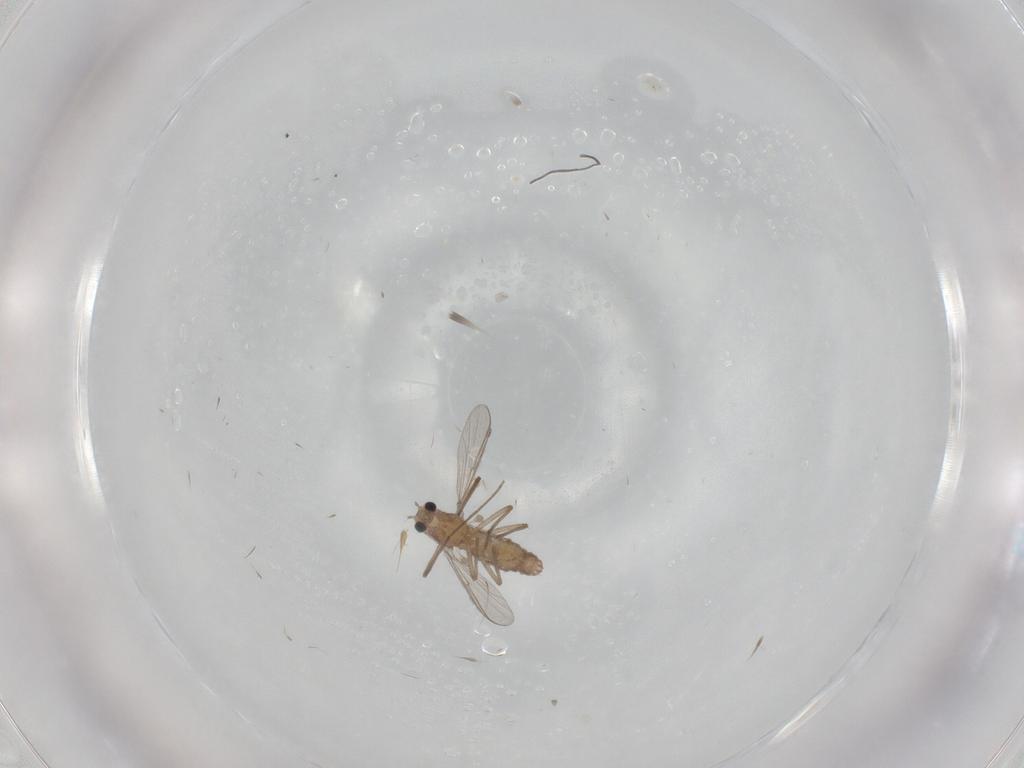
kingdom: Animalia
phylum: Arthropoda
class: Insecta
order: Diptera
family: Chironomidae
